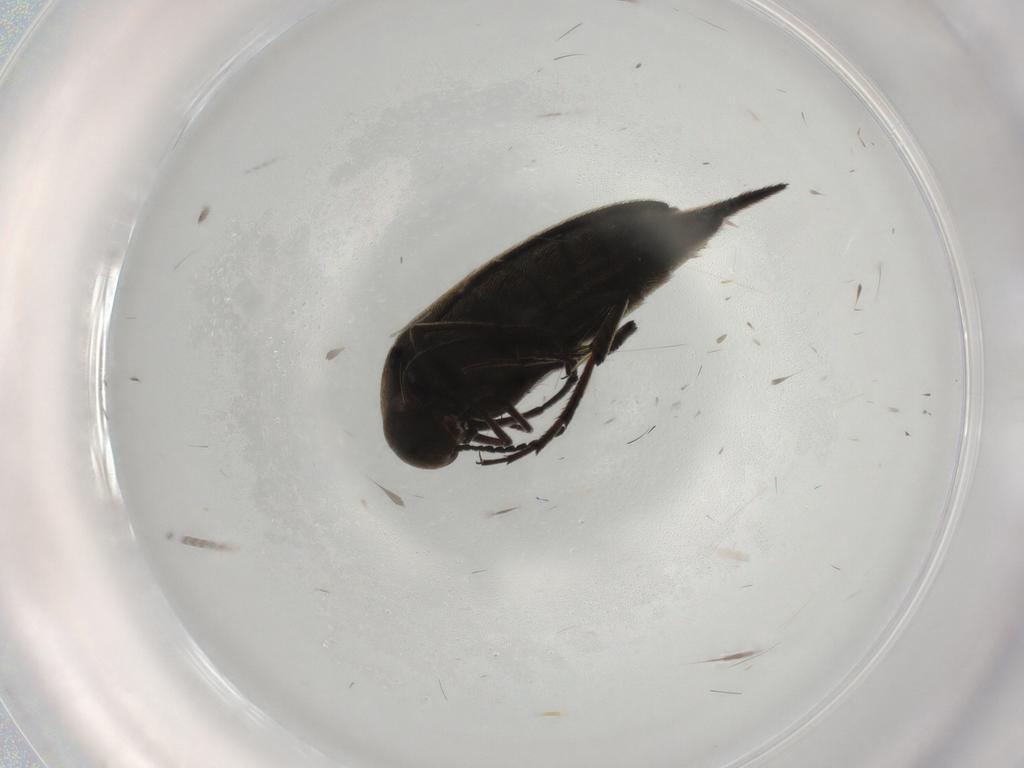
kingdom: Animalia
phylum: Arthropoda
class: Insecta
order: Coleoptera
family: Mordellidae
